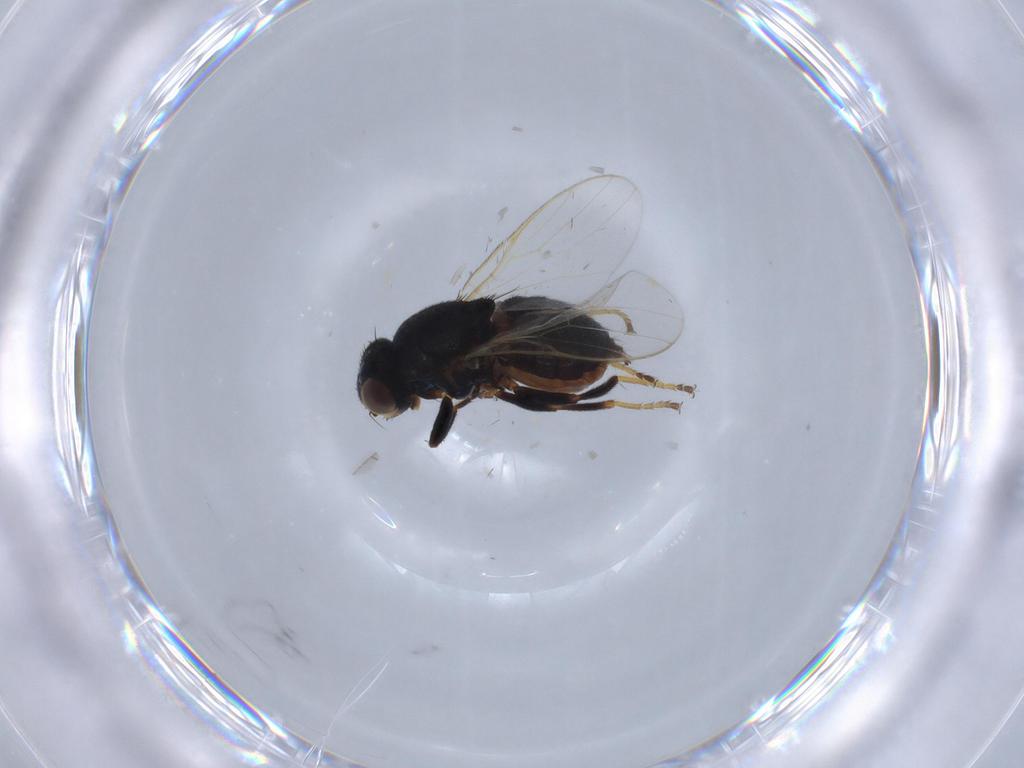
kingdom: Animalia
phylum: Arthropoda
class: Insecta
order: Diptera
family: Chloropidae
